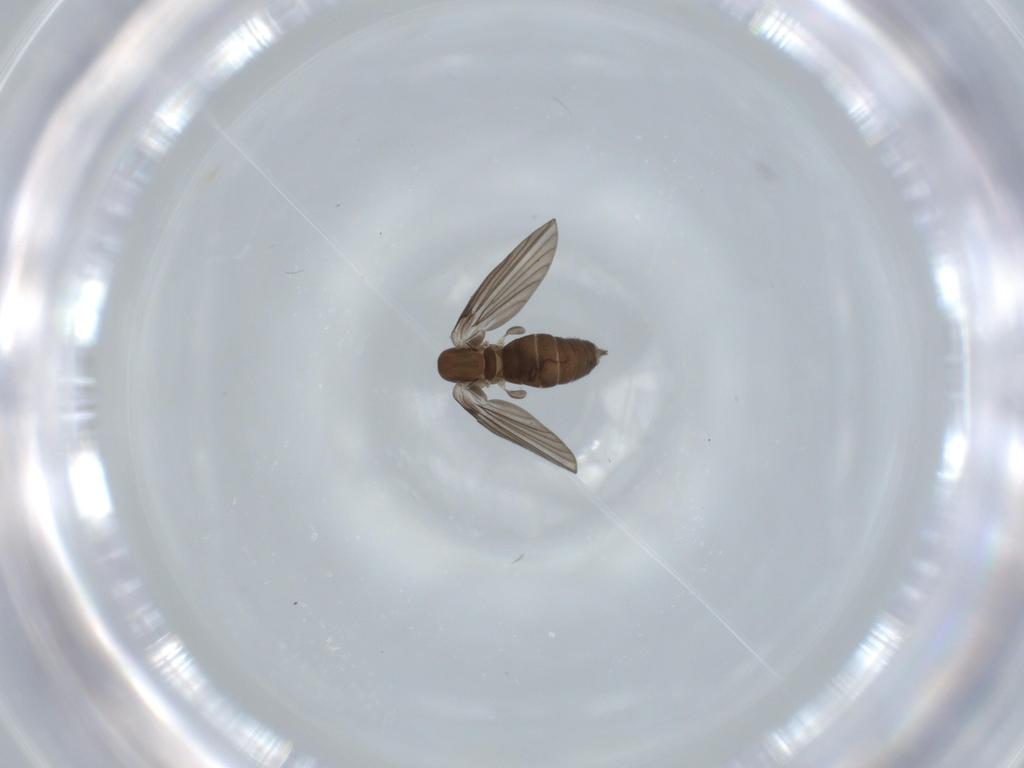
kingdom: Animalia
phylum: Arthropoda
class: Insecta
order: Diptera
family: Psychodidae
